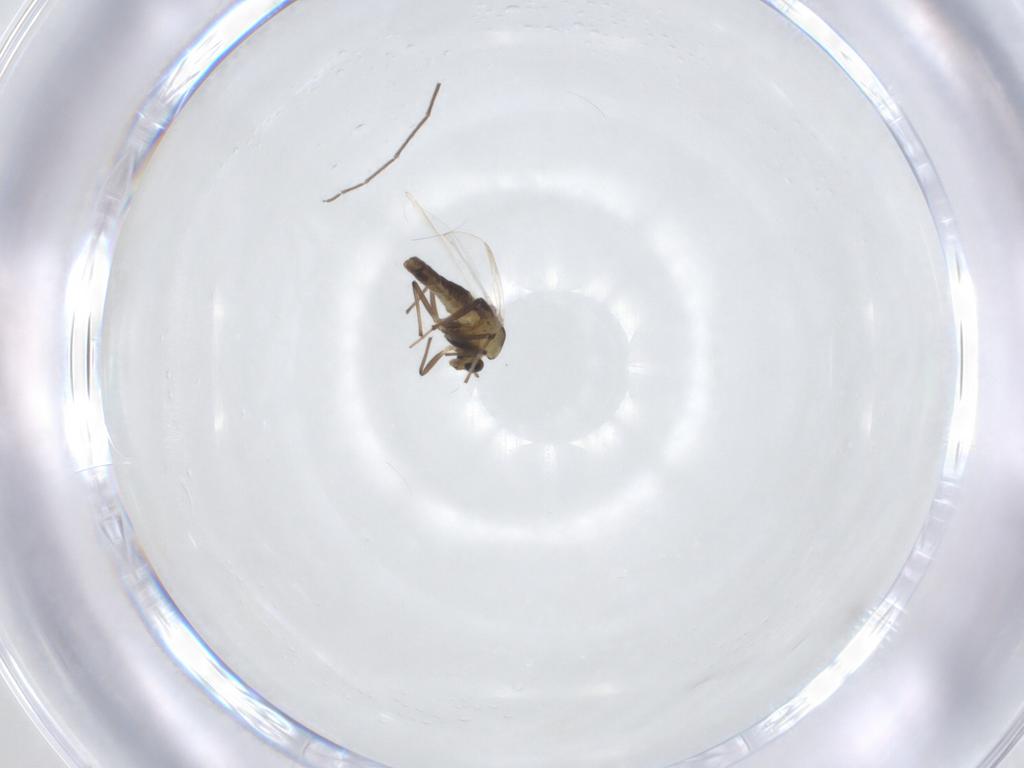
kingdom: Animalia
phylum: Arthropoda
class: Insecta
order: Diptera
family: Chironomidae
